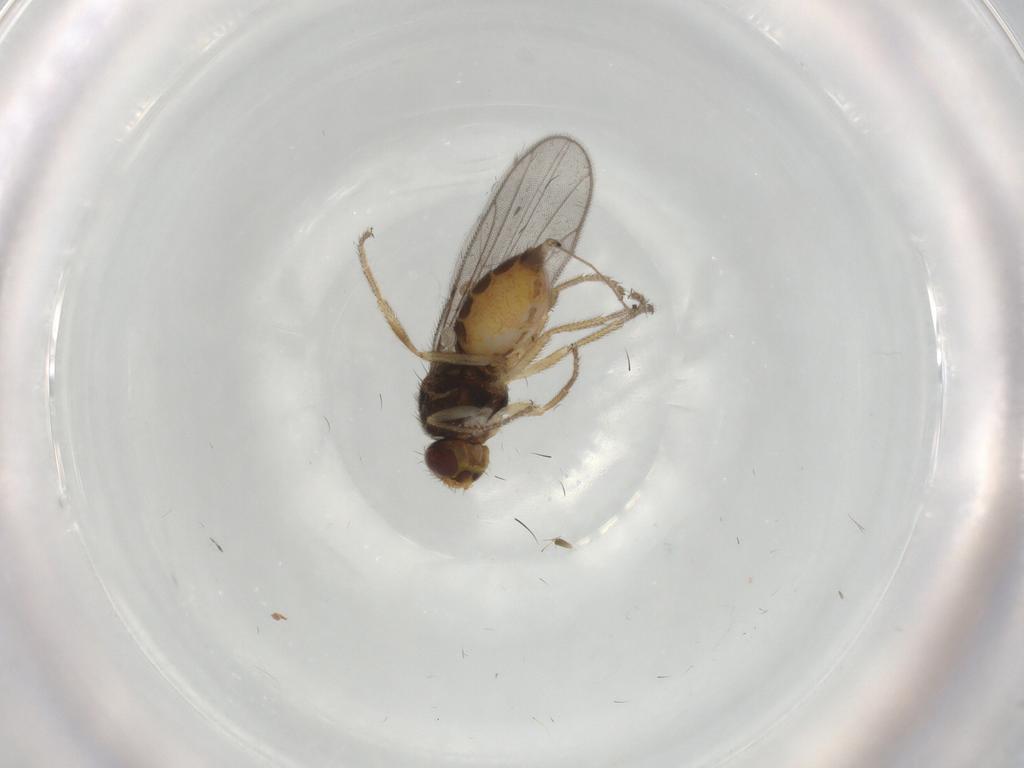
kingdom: Animalia
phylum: Arthropoda
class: Insecta
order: Diptera
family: Chloropidae
